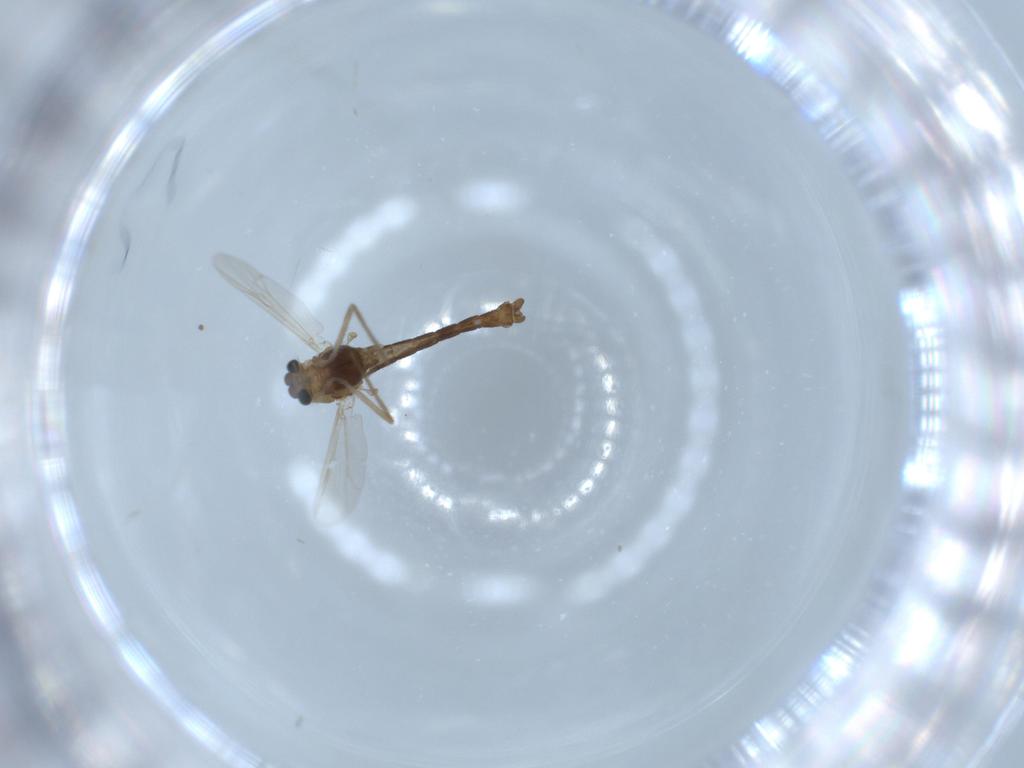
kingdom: Animalia
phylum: Arthropoda
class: Insecta
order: Diptera
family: Chironomidae
